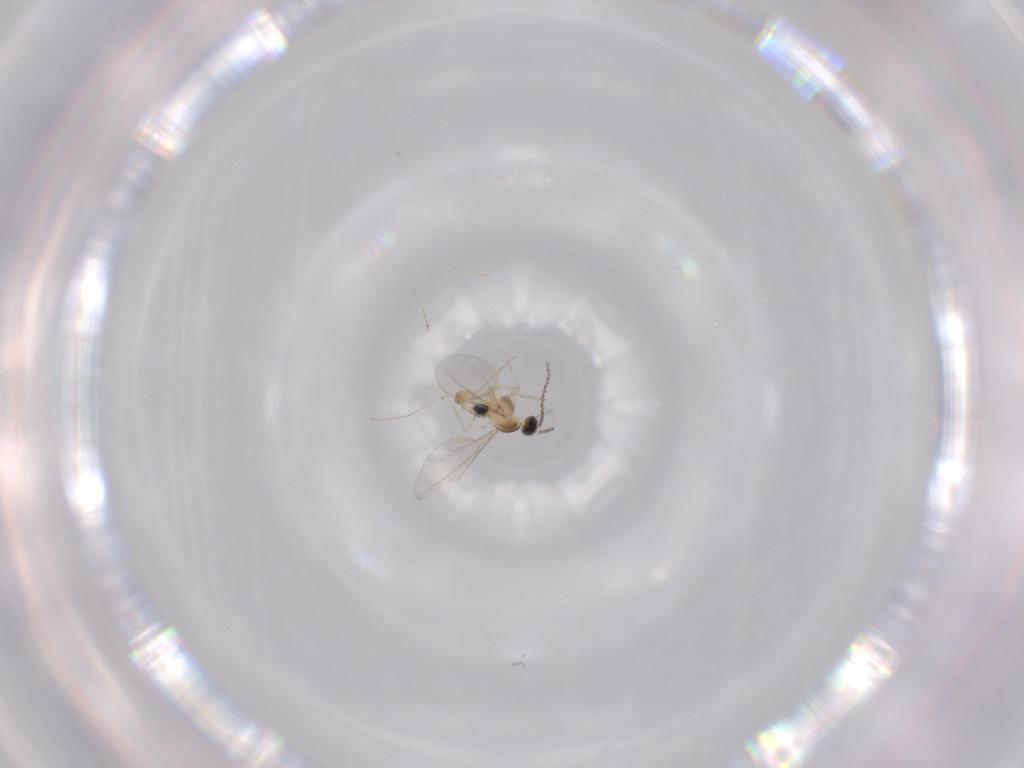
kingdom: Animalia
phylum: Arthropoda
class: Insecta
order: Diptera
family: Cecidomyiidae
